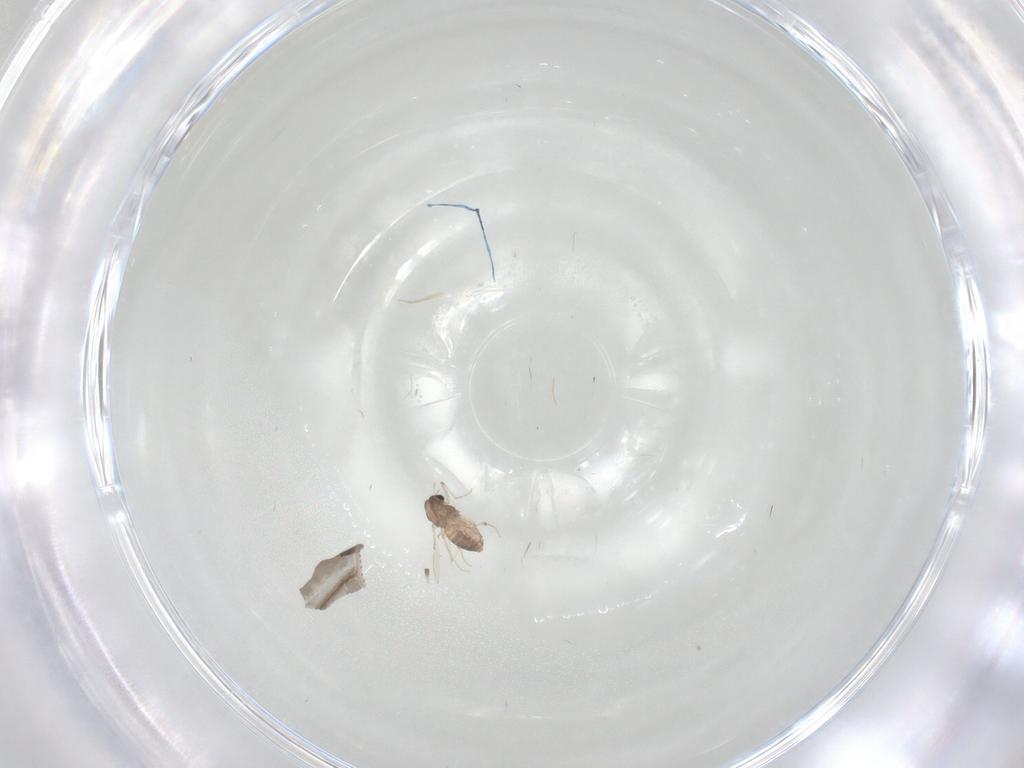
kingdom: Animalia
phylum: Arthropoda
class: Insecta
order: Diptera
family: Chironomidae
